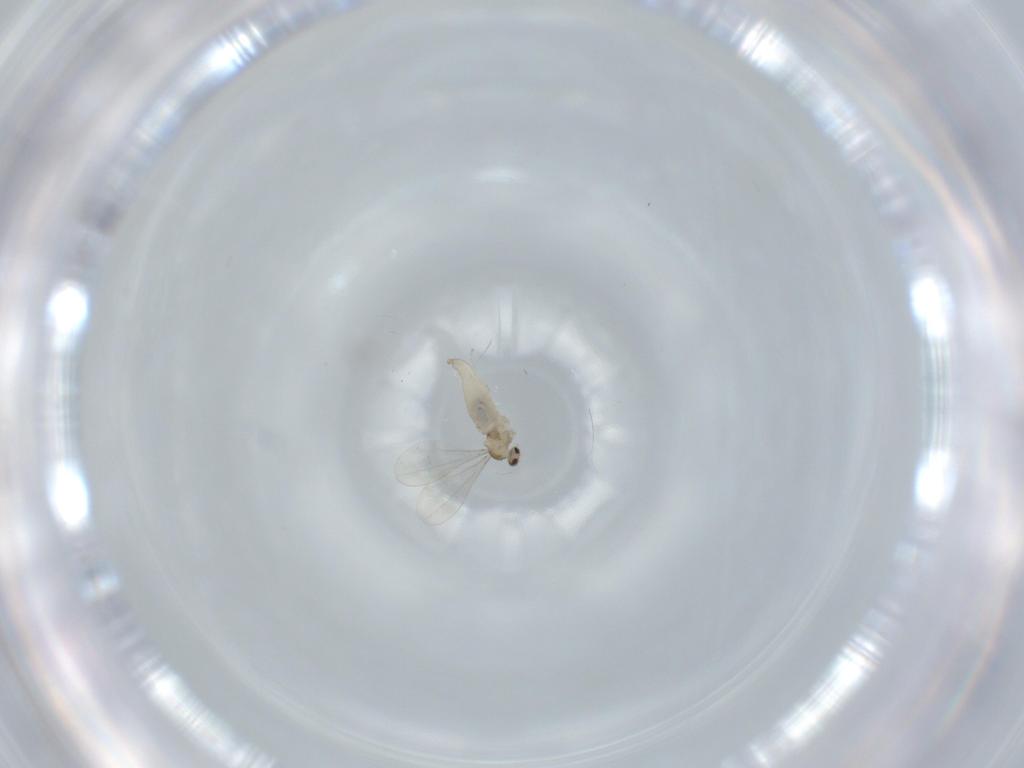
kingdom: Animalia
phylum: Arthropoda
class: Insecta
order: Diptera
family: Cecidomyiidae
